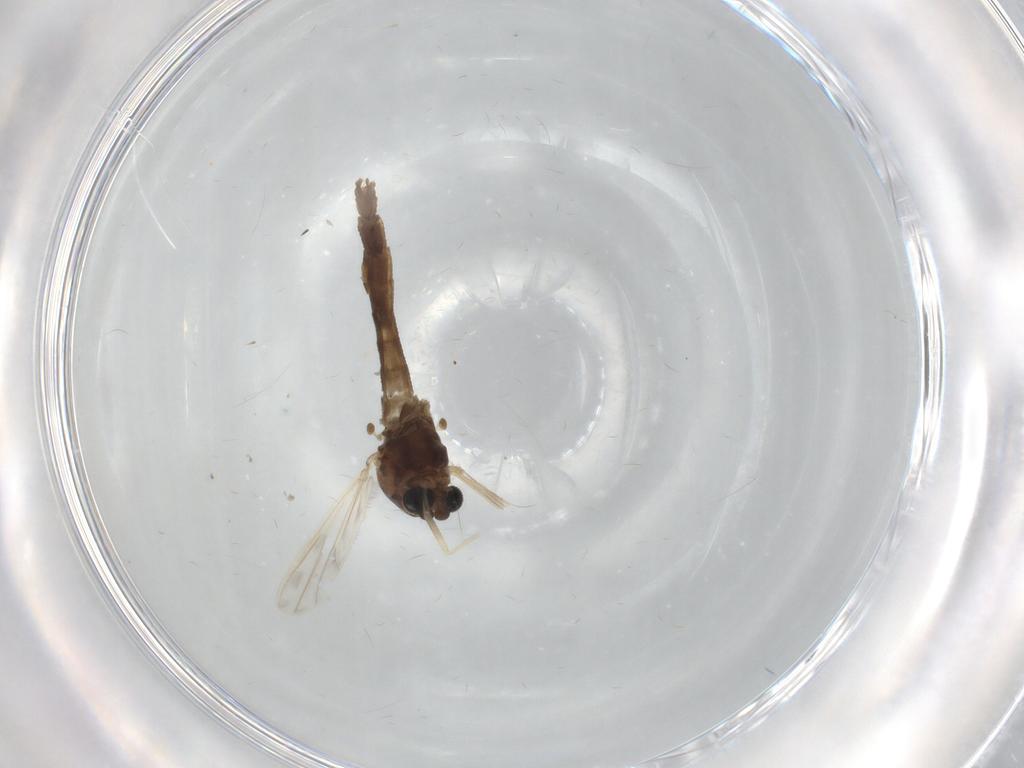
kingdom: Animalia
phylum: Arthropoda
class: Insecta
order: Diptera
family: Chironomidae
